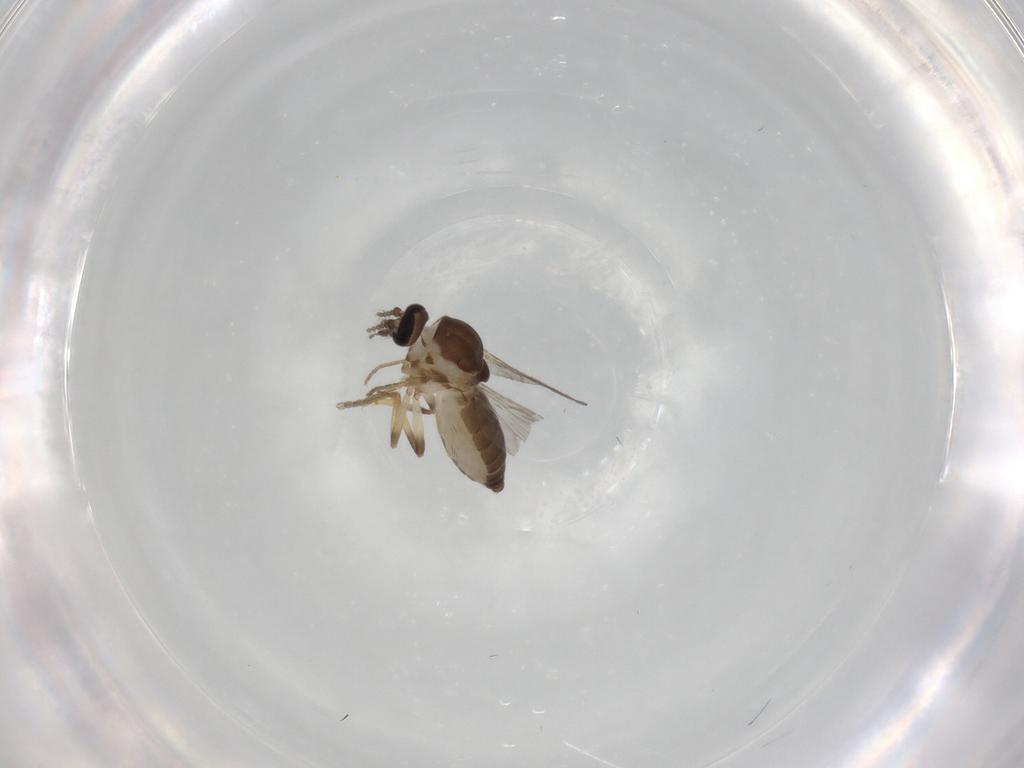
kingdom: Animalia
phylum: Arthropoda
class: Insecta
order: Diptera
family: Ceratopogonidae
